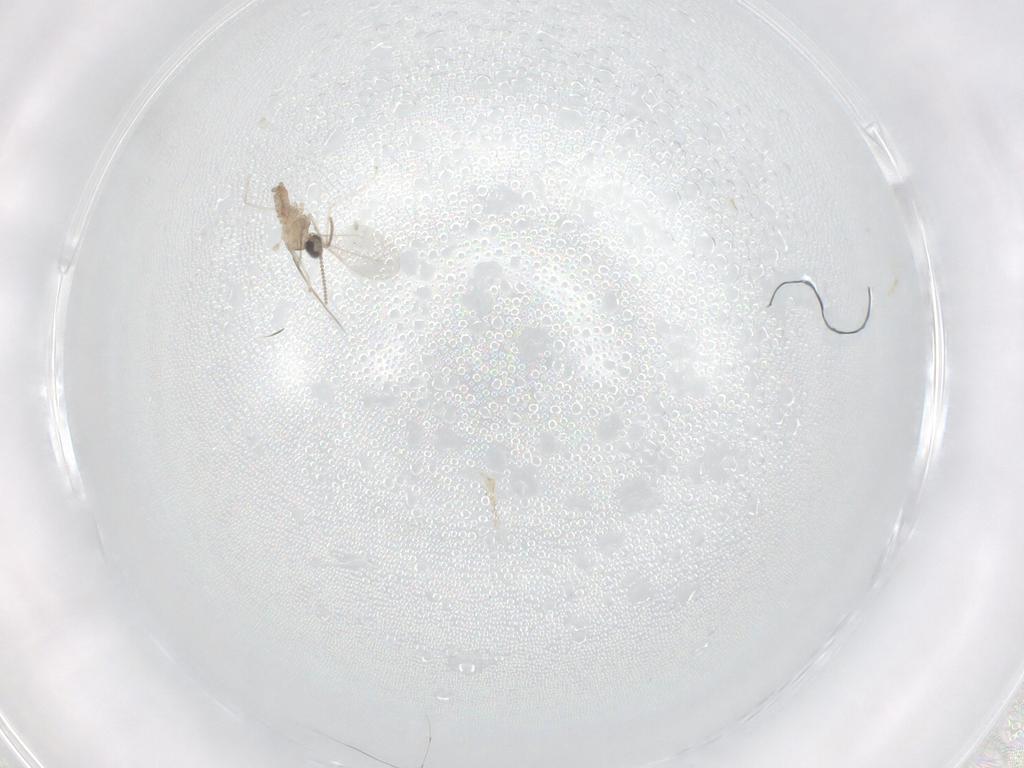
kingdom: Animalia
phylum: Arthropoda
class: Insecta
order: Diptera
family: Cecidomyiidae
